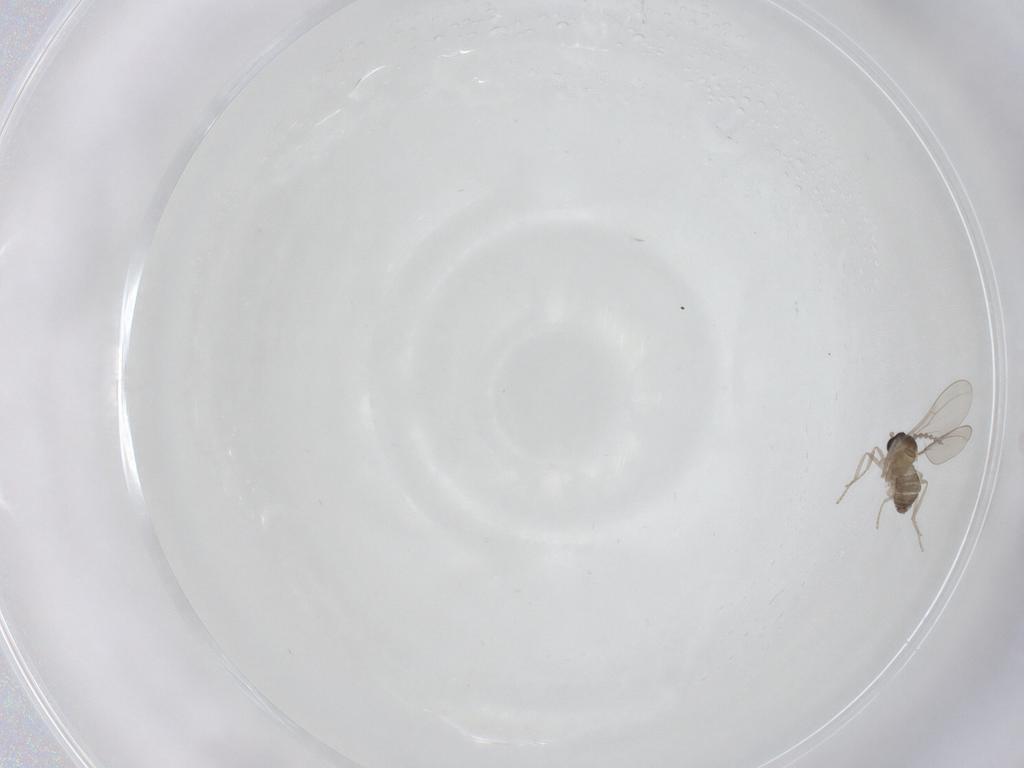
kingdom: Animalia
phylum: Arthropoda
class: Insecta
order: Diptera
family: Cecidomyiidae
